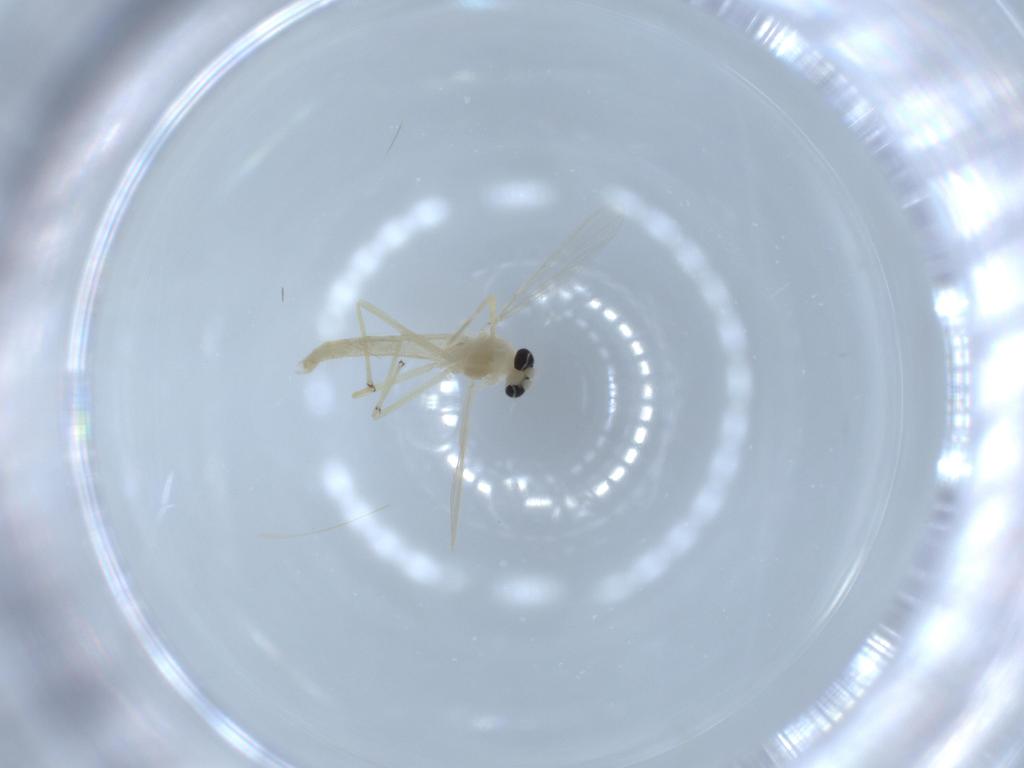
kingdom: Animalia
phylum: Arthropoda
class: Insecta
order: Diptera
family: Chironomidae
